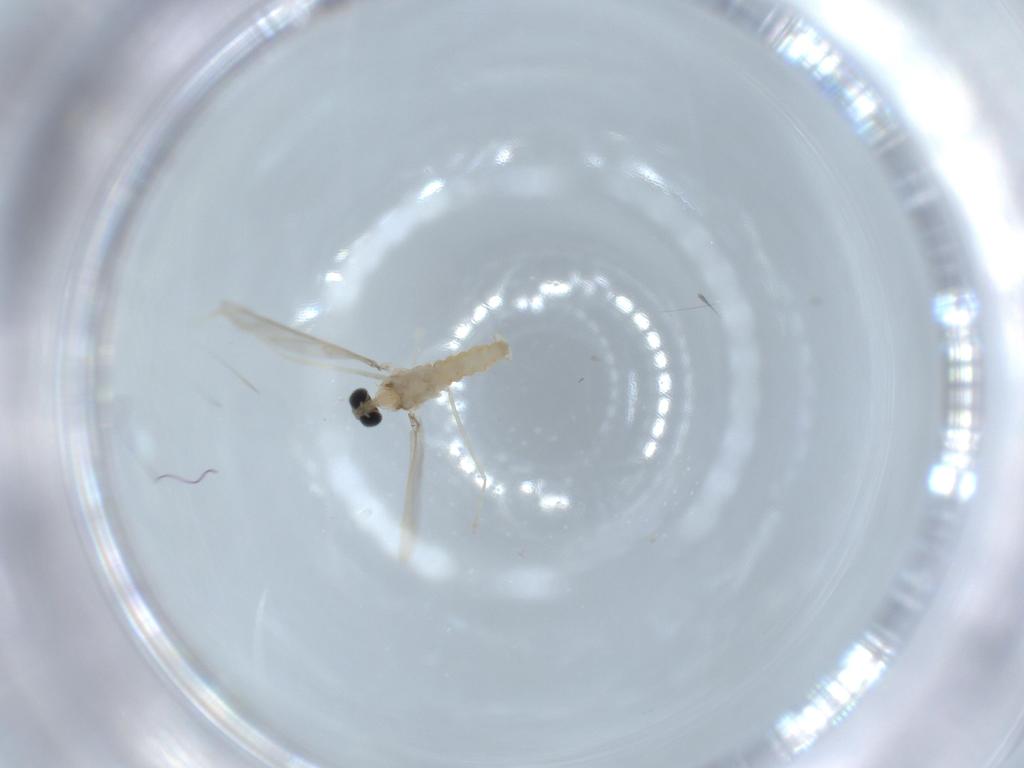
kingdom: Animalia
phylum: Arthropoda
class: Insecta
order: Diptera
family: Cecidomyiidae
